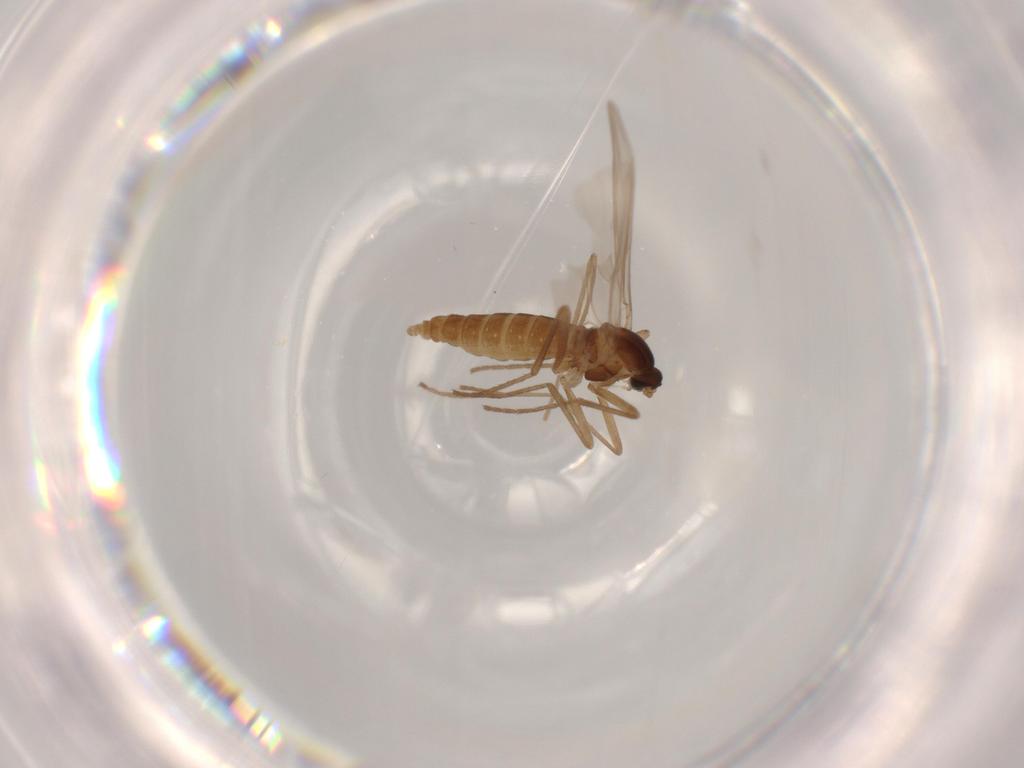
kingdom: Animalia
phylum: Arthropoda
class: Insecta
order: Diptera
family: Cecidomyiidae
